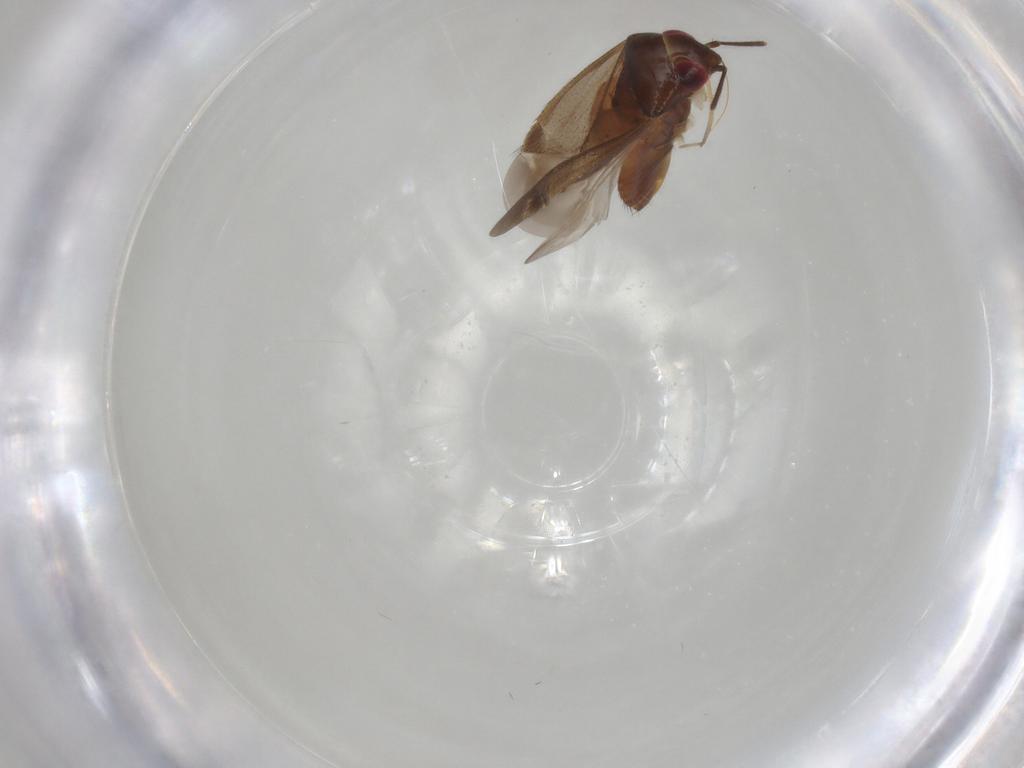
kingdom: Animalia
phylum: Arthropoda
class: Insecta
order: Hemiptera
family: Miridae
